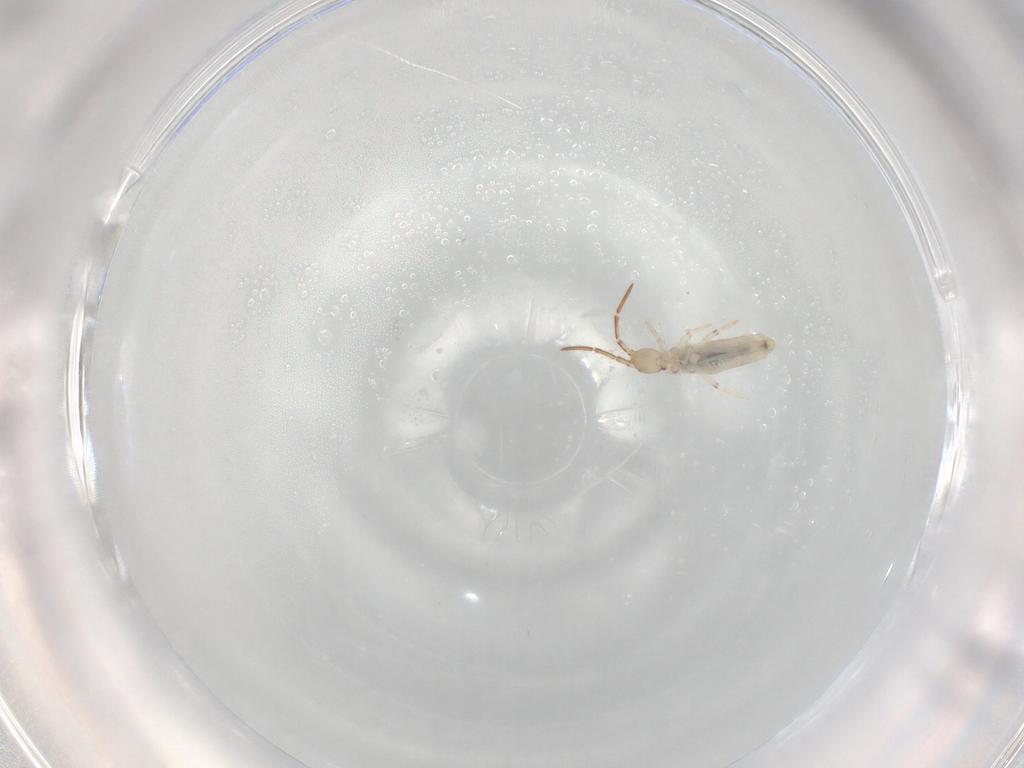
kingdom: Animalia
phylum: Arthropoda
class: Collembola
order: Entomobryomorpha
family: Entomobryidae
